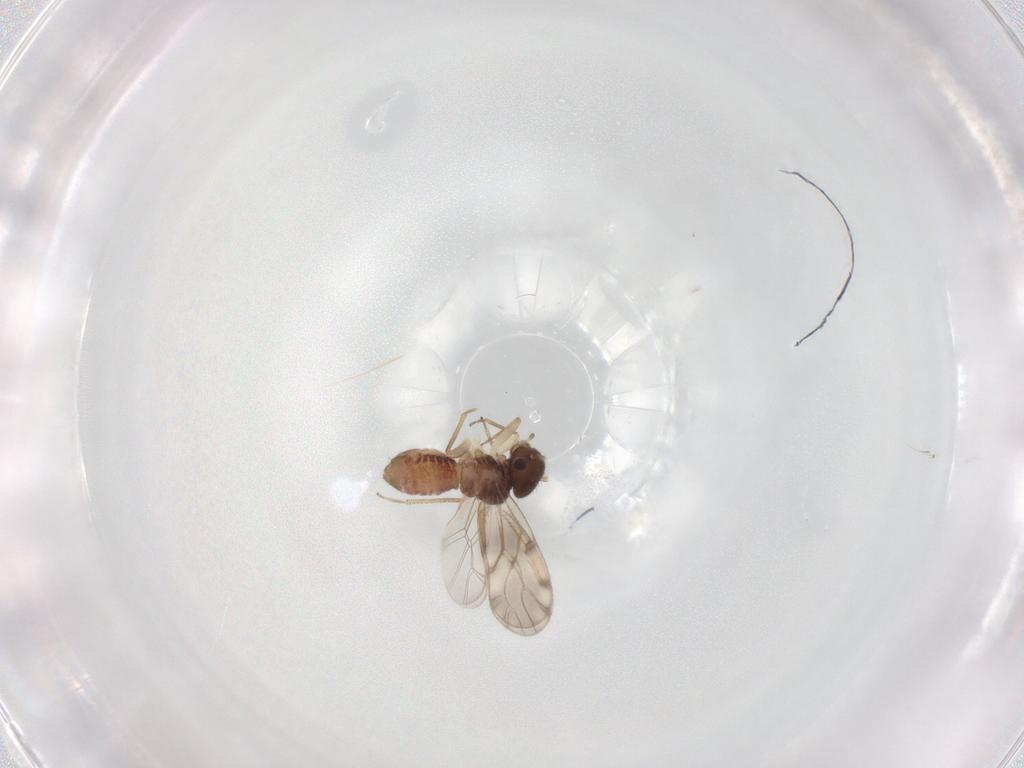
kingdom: Animalia
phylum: Arthropoda
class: Insecta
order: Psocodea
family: Peripsocidae
